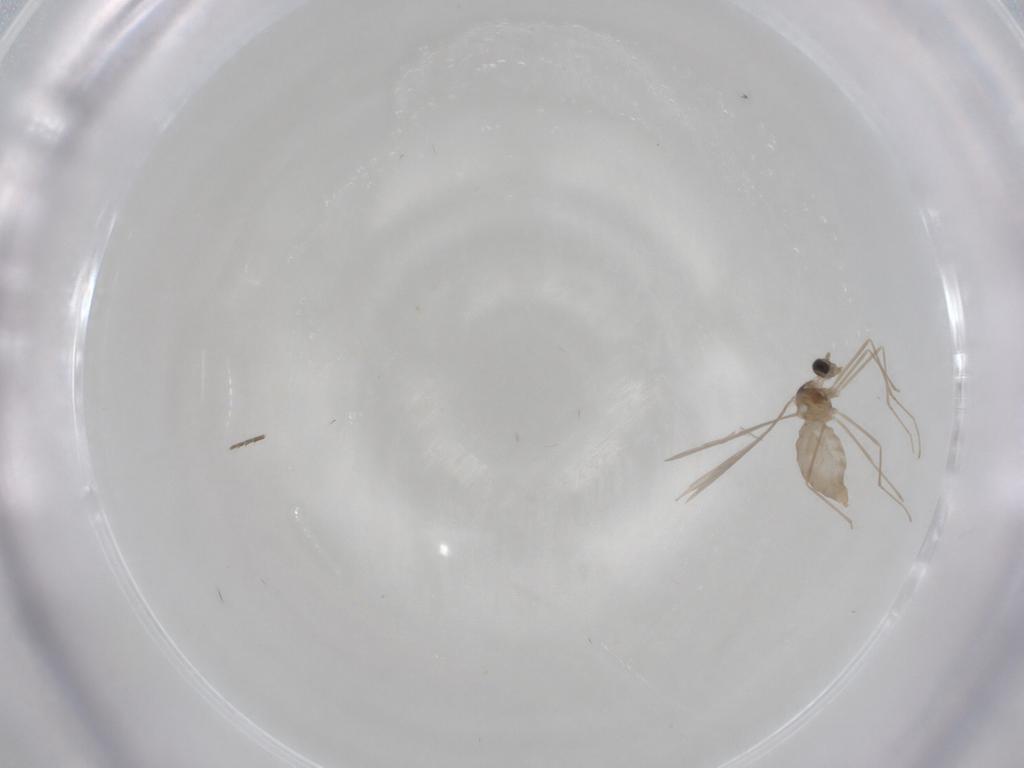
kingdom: Animalia
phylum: Arthropoda
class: Insecta
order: Diptera
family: Cecidomyiidae
